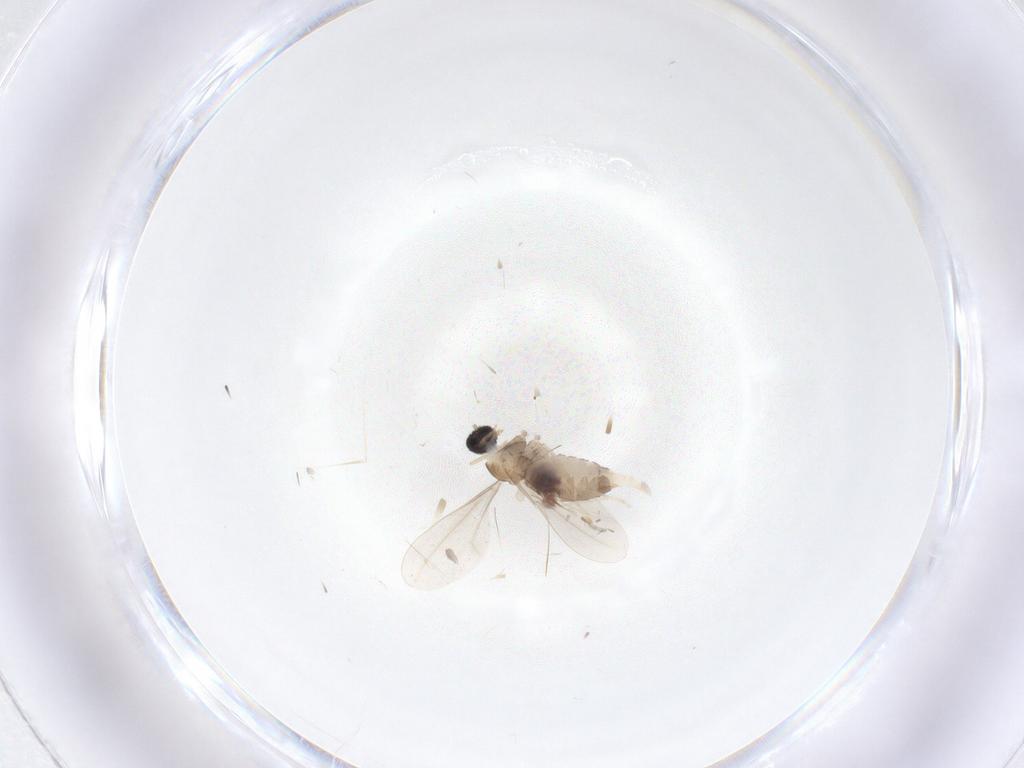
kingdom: Animalia
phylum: Arthropoda
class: Insecta
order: Diptera
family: Cecidomyiidae
